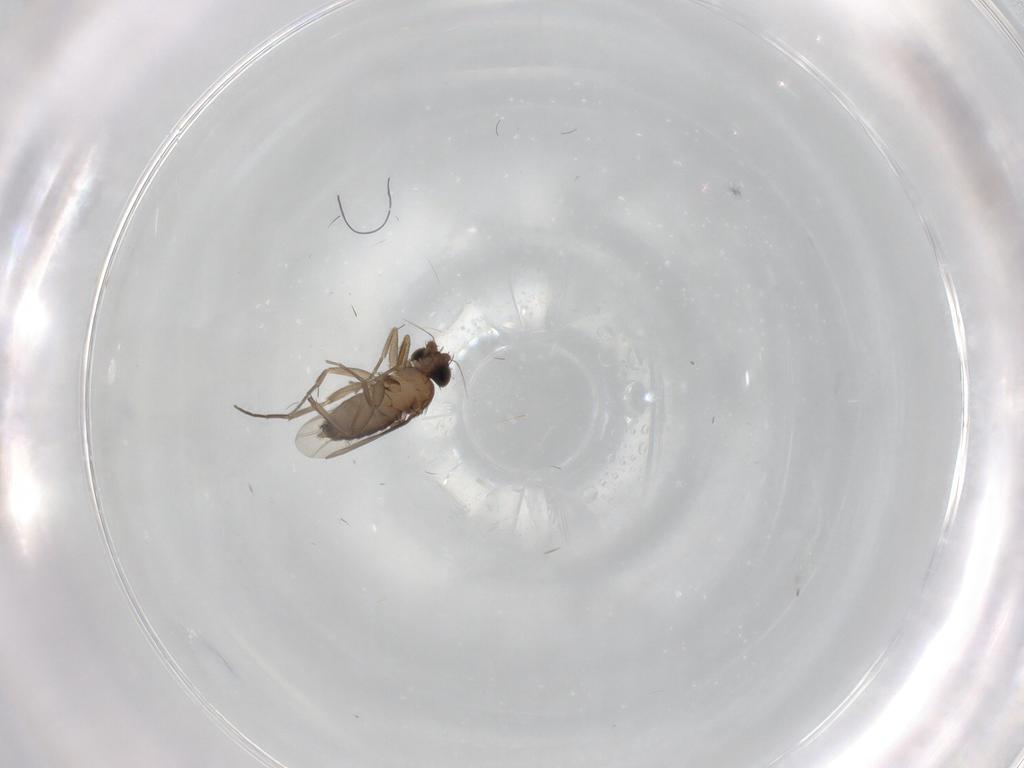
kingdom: Animalia
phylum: Arthropoda
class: Insecta
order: Diptera
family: Phoridae
